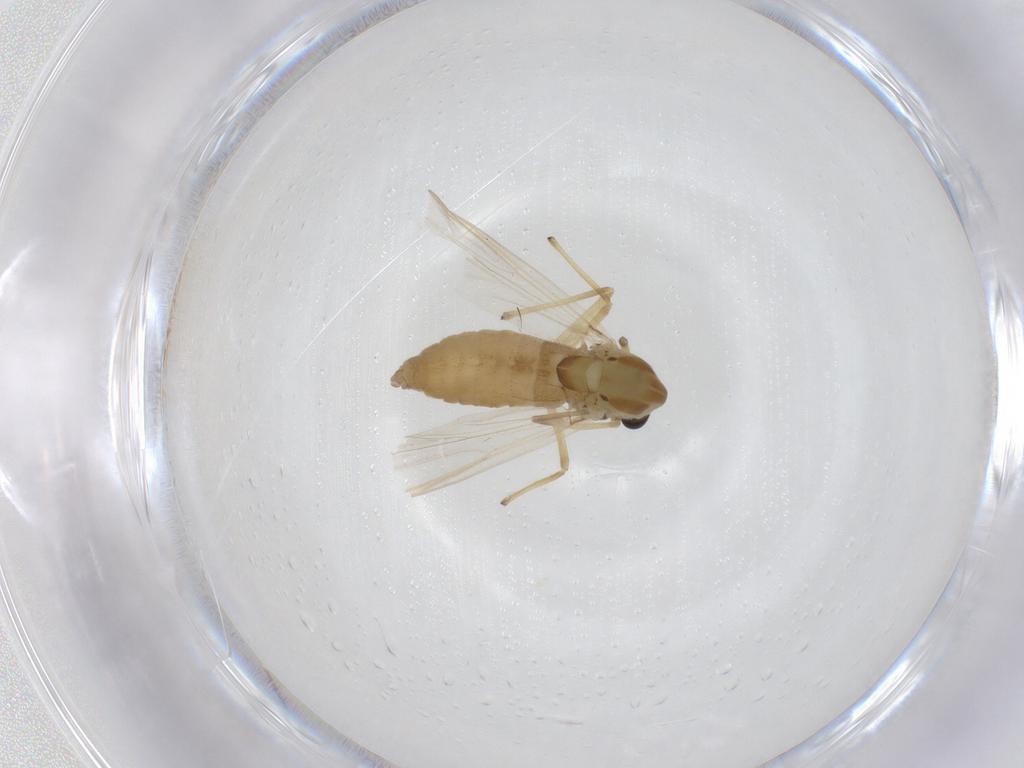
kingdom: Animalia
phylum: Arthropoda
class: Insecta
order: Diptera
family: Chironomidae
